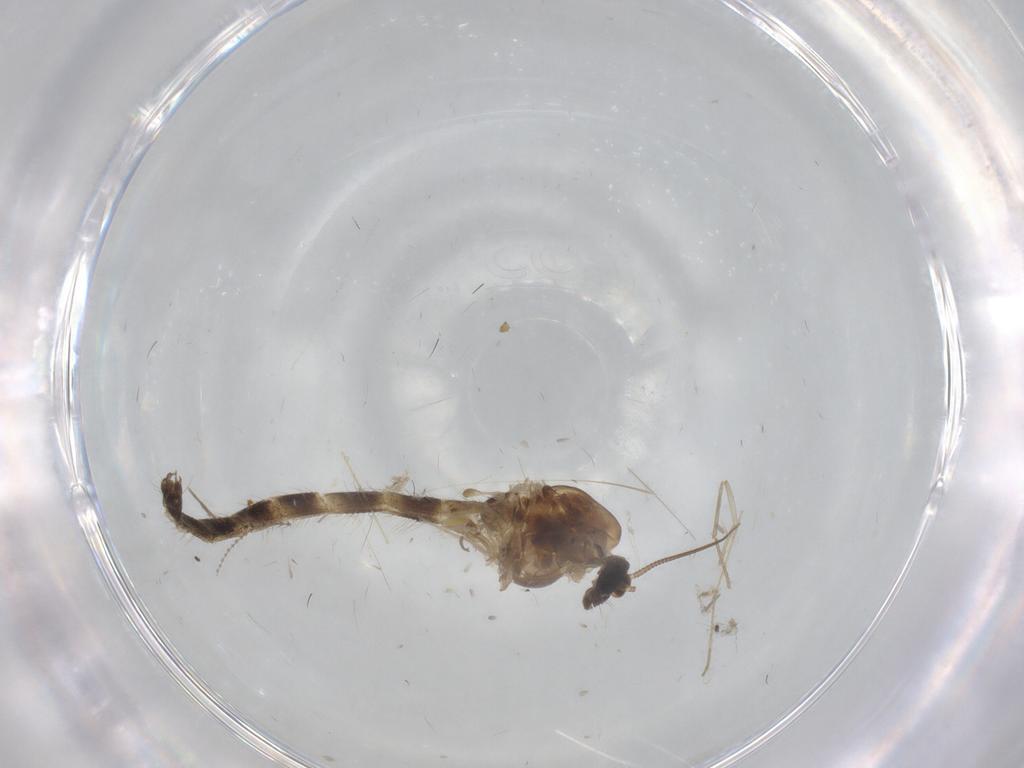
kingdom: Animalia
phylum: Arthropoda
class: Insecta
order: Diptera
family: Chironomidae
